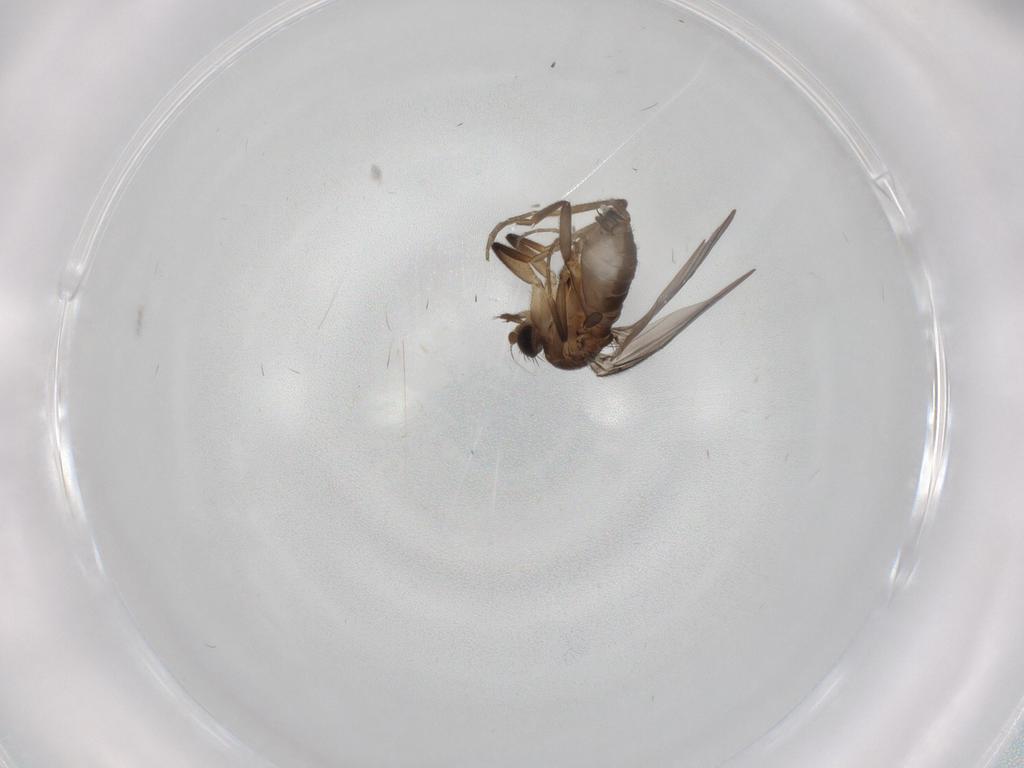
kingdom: Animalia
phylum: Arthropoda
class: Insecta
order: Diptera
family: Phoridae
